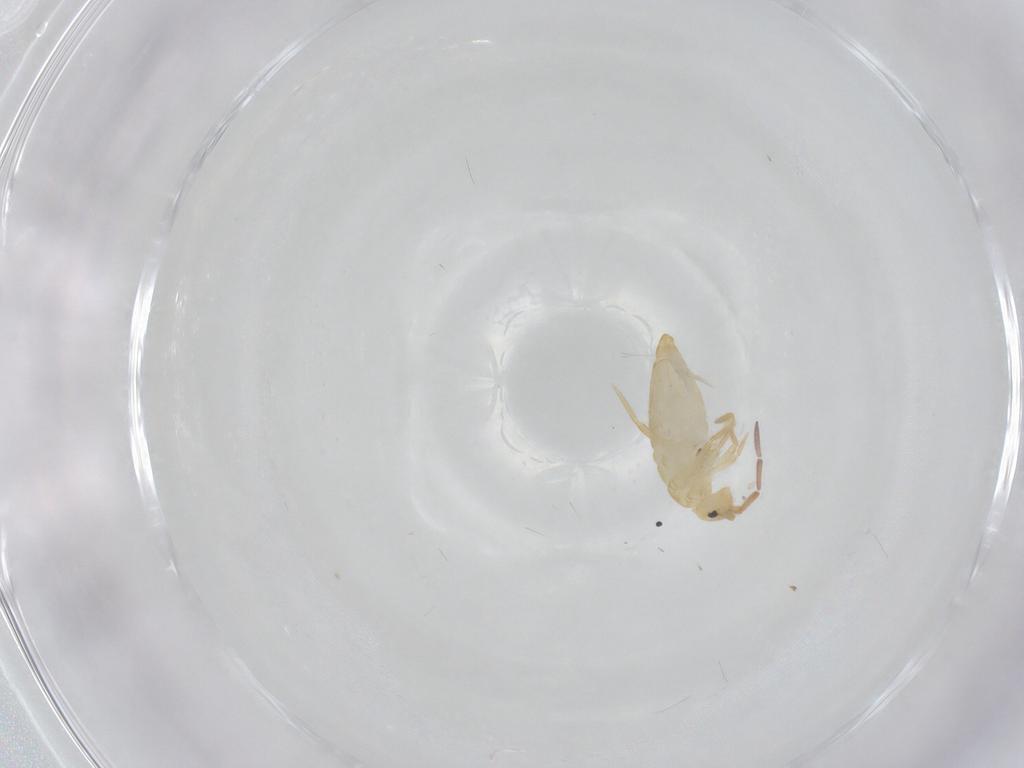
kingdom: Animalia
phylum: Arthropoda
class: Collembola
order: Entomobryomorpha
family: Entomobryidae
